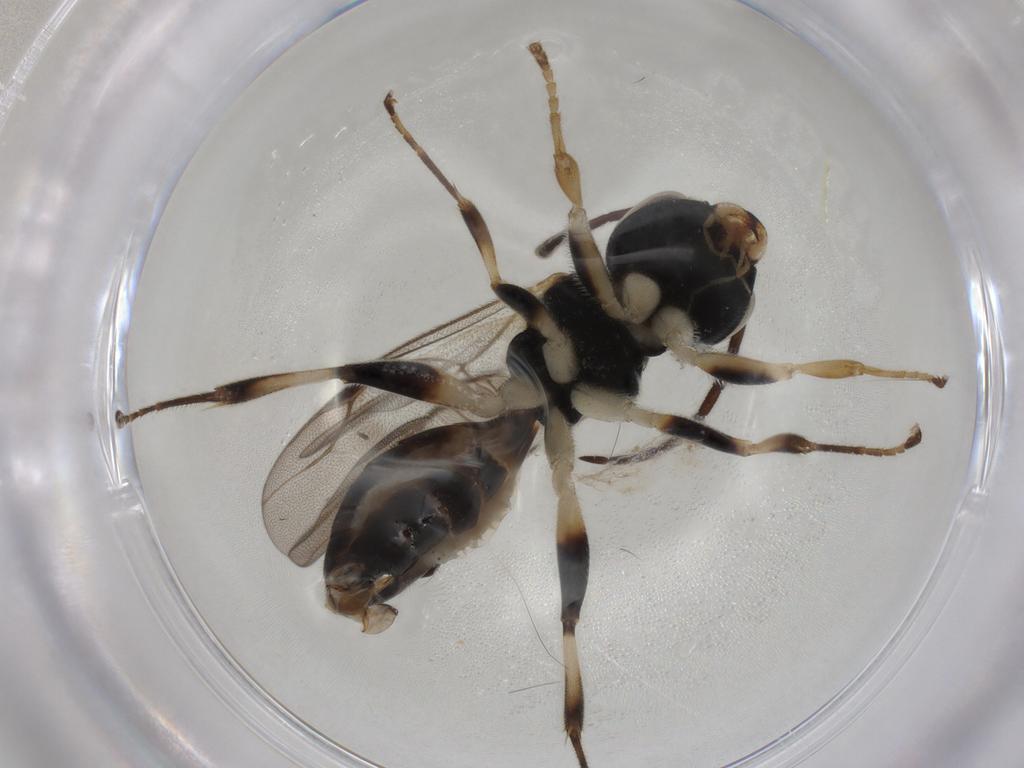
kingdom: Animalia
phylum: Arthropoda
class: Insecta
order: Hymenoptera
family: Dryinidae
